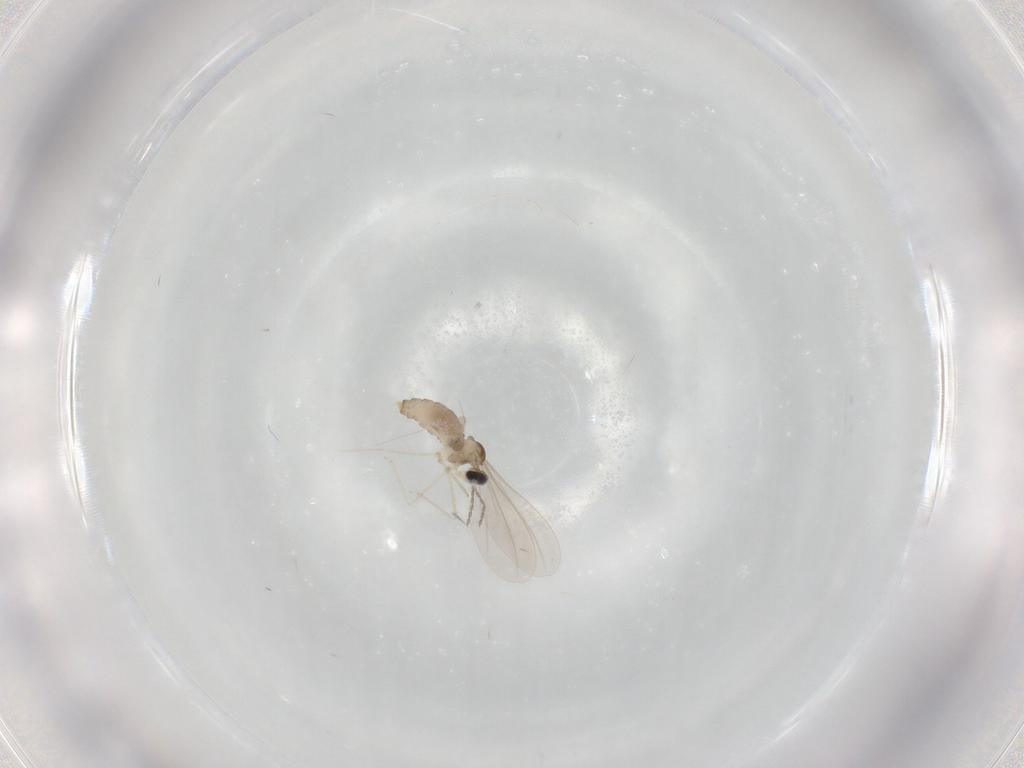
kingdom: Animalia
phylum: Arthropoda
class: Insecta
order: Diptera
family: Cecidomyiidae
